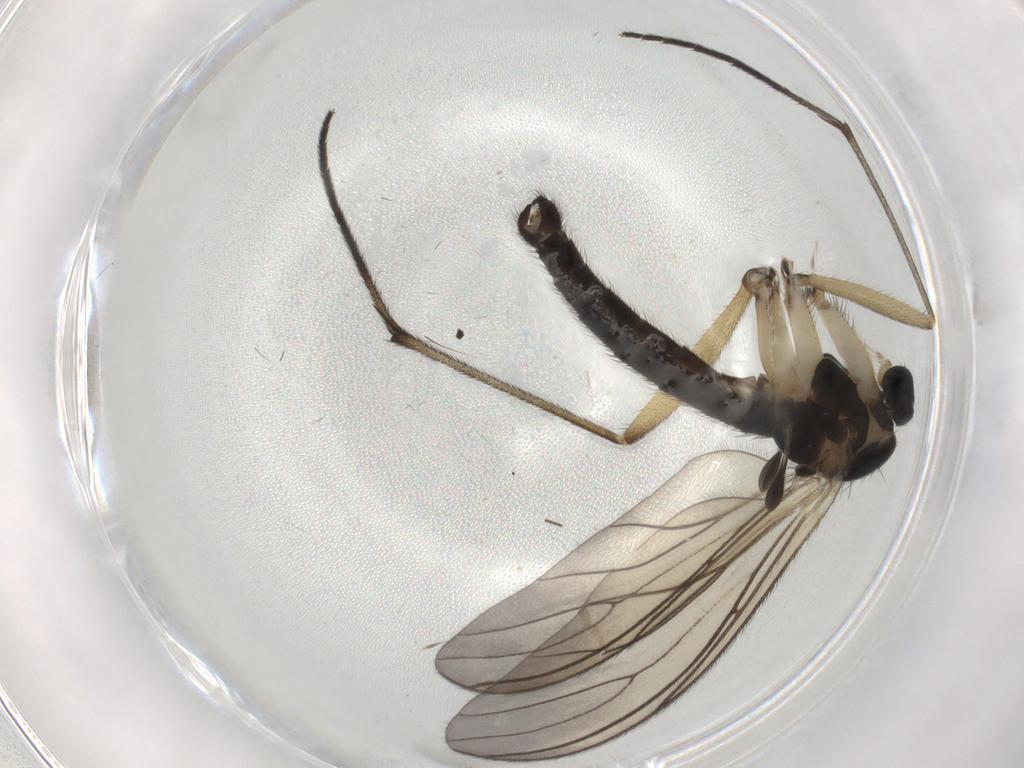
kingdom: Animalia
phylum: Arthropoda
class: Insecta
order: Diptera
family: Sciaridae
